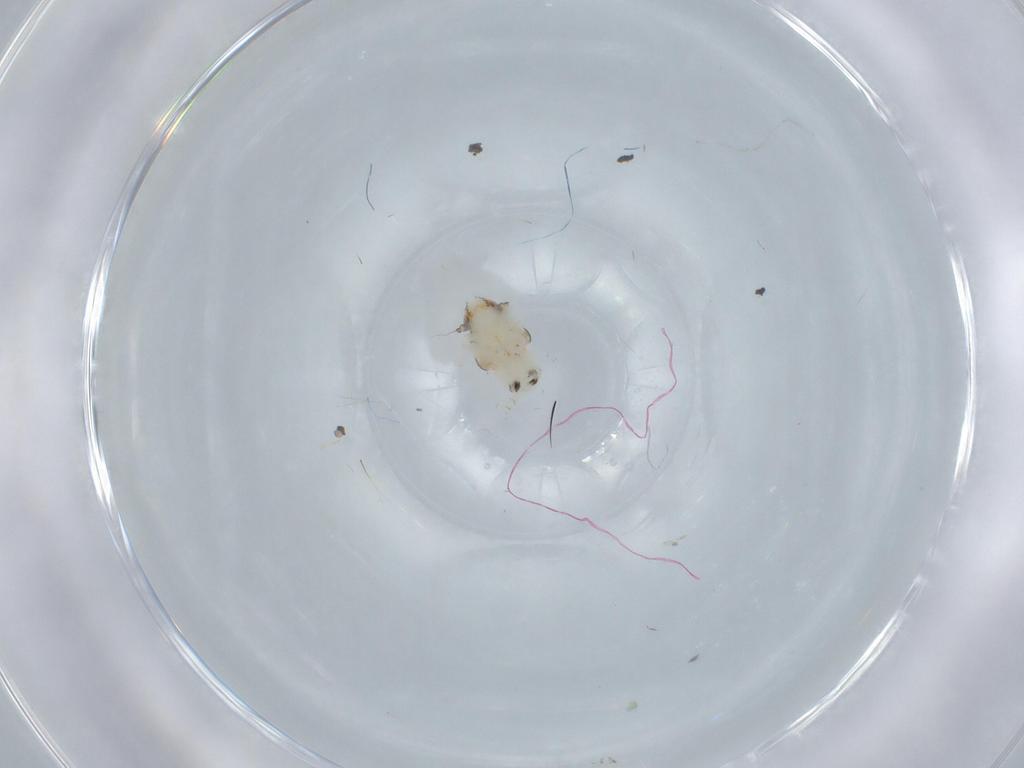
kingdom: Animalia
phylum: Arthropoda
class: Insecta
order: Hemiptera
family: Nogodinidae
